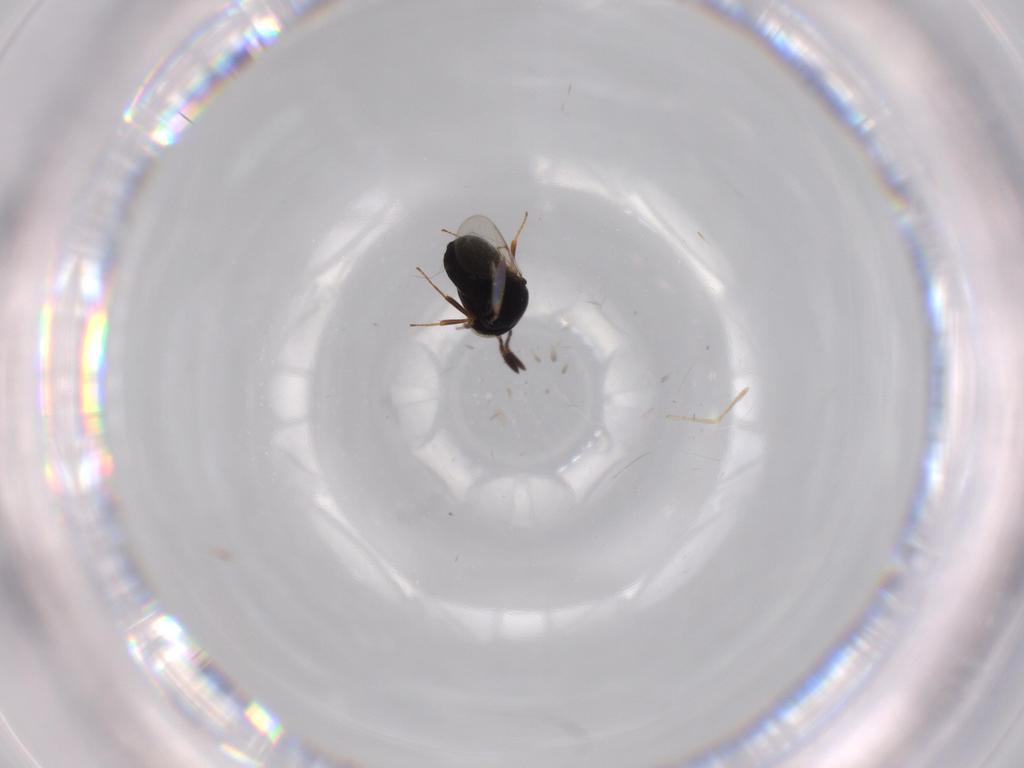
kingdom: Animalia
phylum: Arthropoda
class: Insecta
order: Hymenoptera
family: Scelionidae
